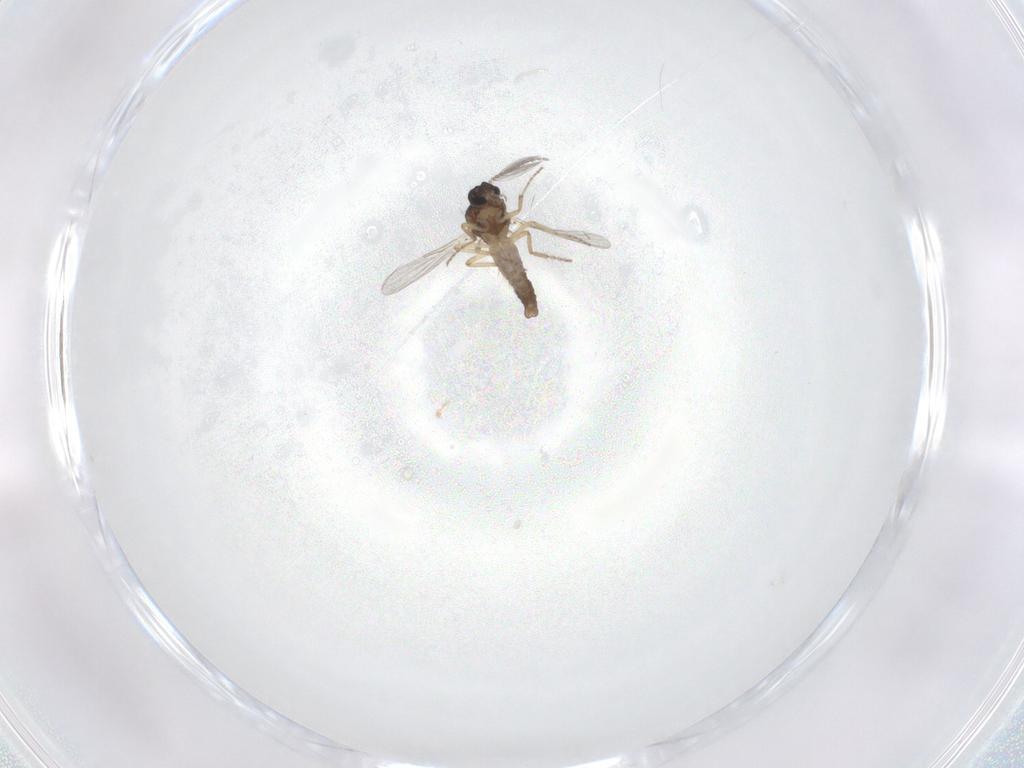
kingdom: Animalia
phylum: Arthropoda
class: Insecta
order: Diptera
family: Ceratopogonidae
